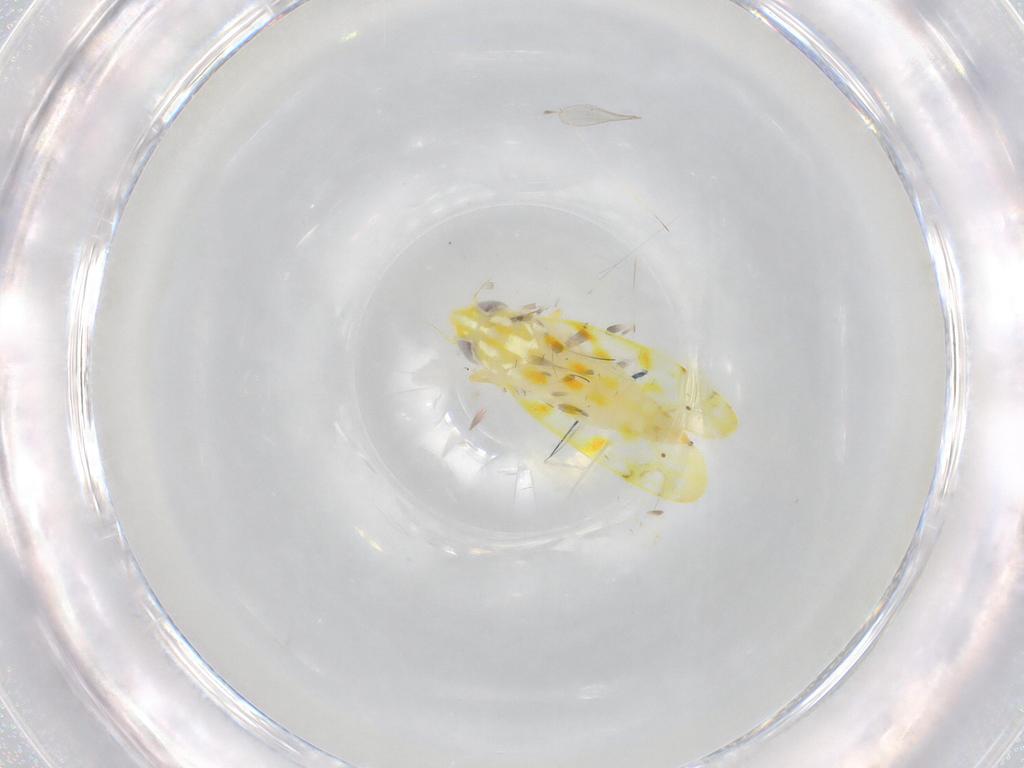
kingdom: Animalia
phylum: Arthropoda
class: Insecta
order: Hemiptera
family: Cicadellidae
